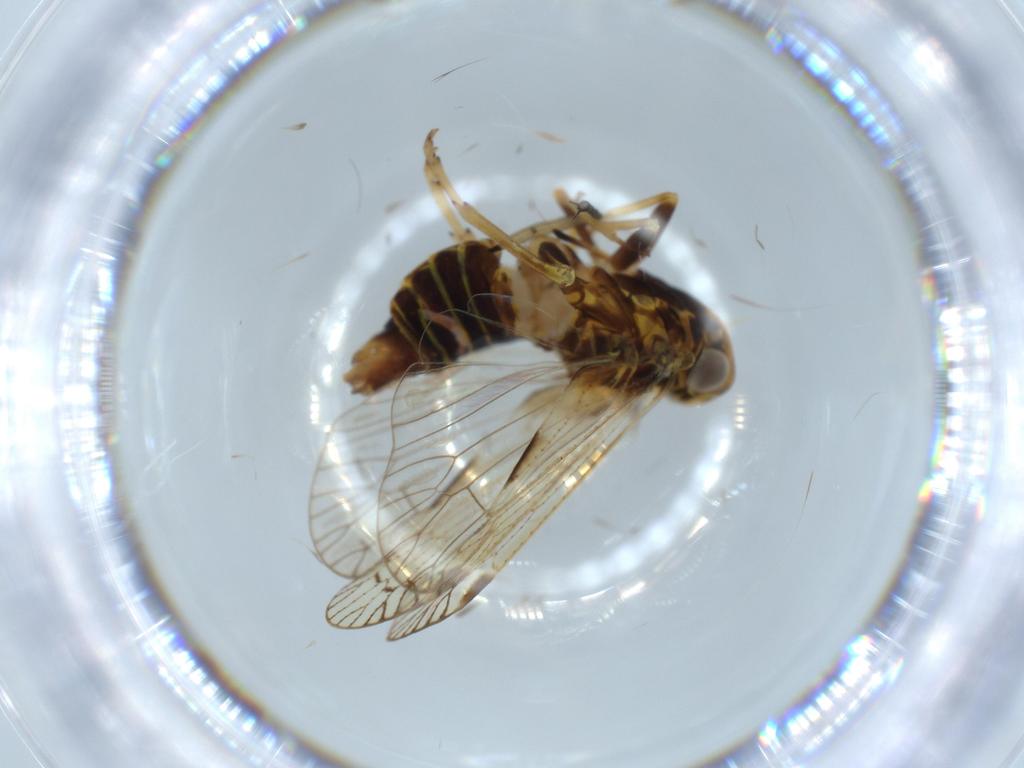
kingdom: Animalia
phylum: Arthropoda
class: Insecta
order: Hemiptera
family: Cixiidae
